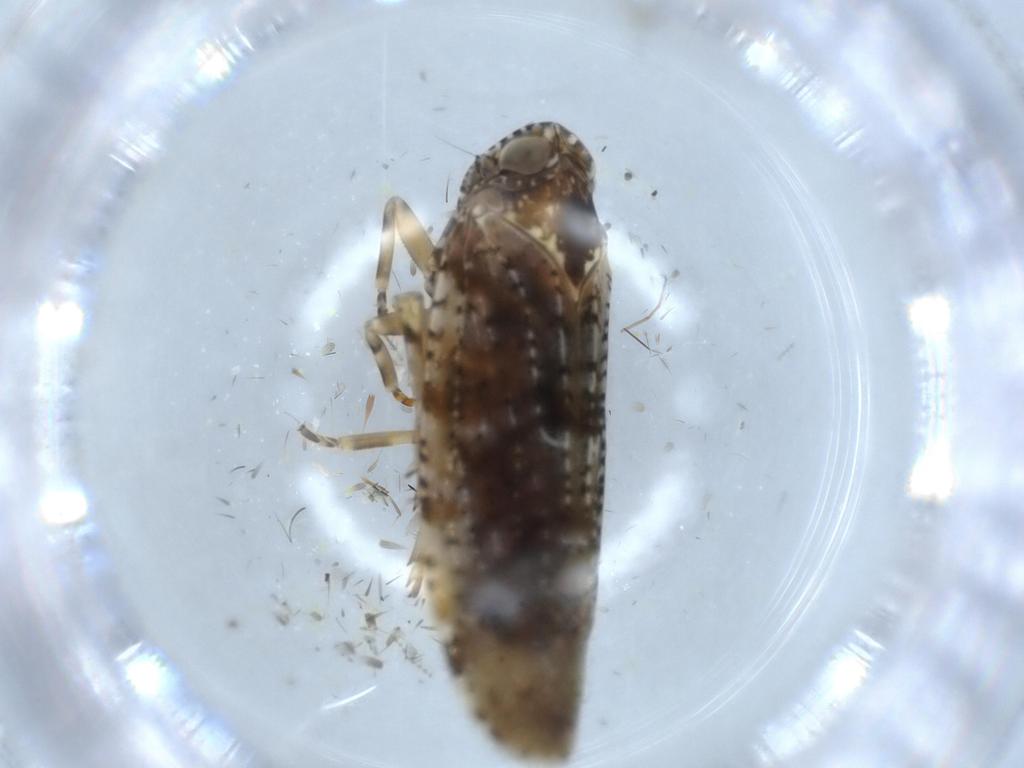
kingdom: Animalia
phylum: Arthropoda
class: Insecta
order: Hemiptera
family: Achilidae
